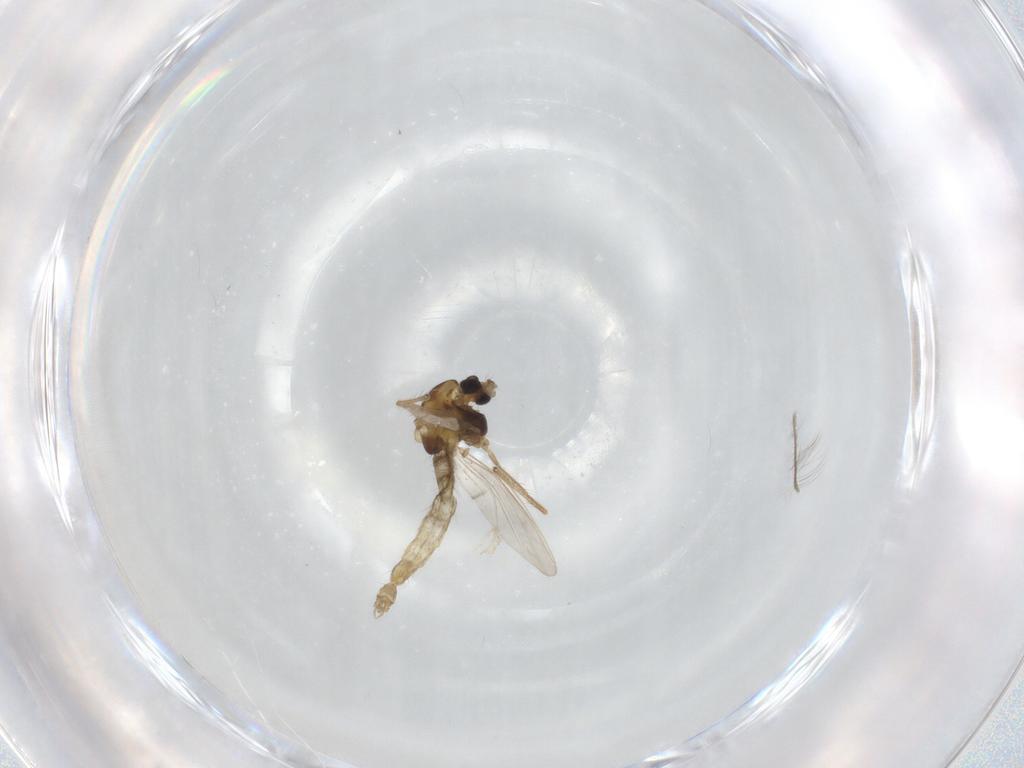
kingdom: Animalia
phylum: Arthropoda
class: Insecta
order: Diptera
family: Chironomidae
